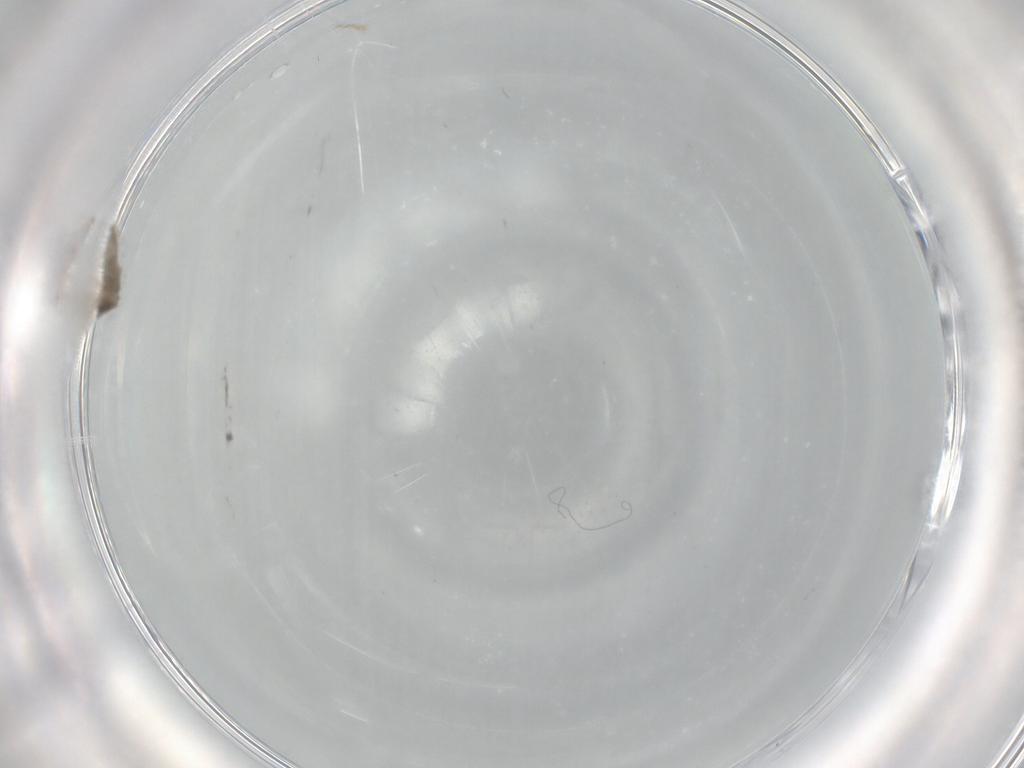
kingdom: Animalia
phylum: Arthropoda
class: Insecta
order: Diptera
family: Cecidomyiidae
